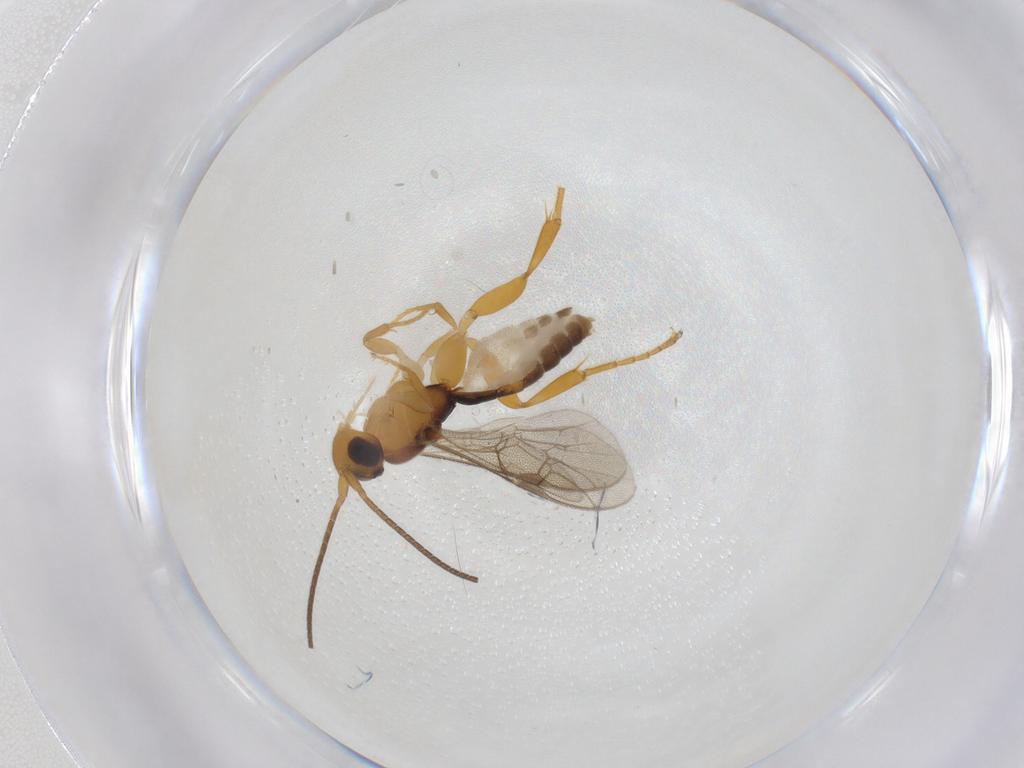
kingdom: Animalia
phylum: Arthropoda
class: Insecta
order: Hymenoptera
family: Ichneumonidae
